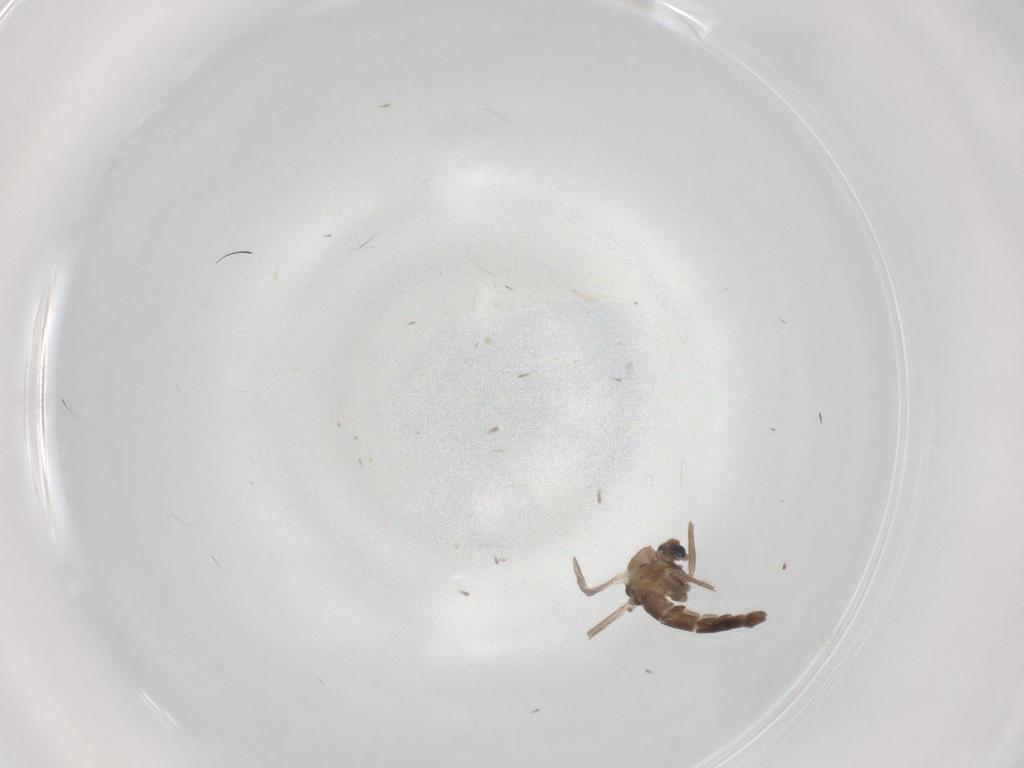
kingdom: Animalia
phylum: Arthropoda
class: Insecta
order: Diptera
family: Chironomidae
